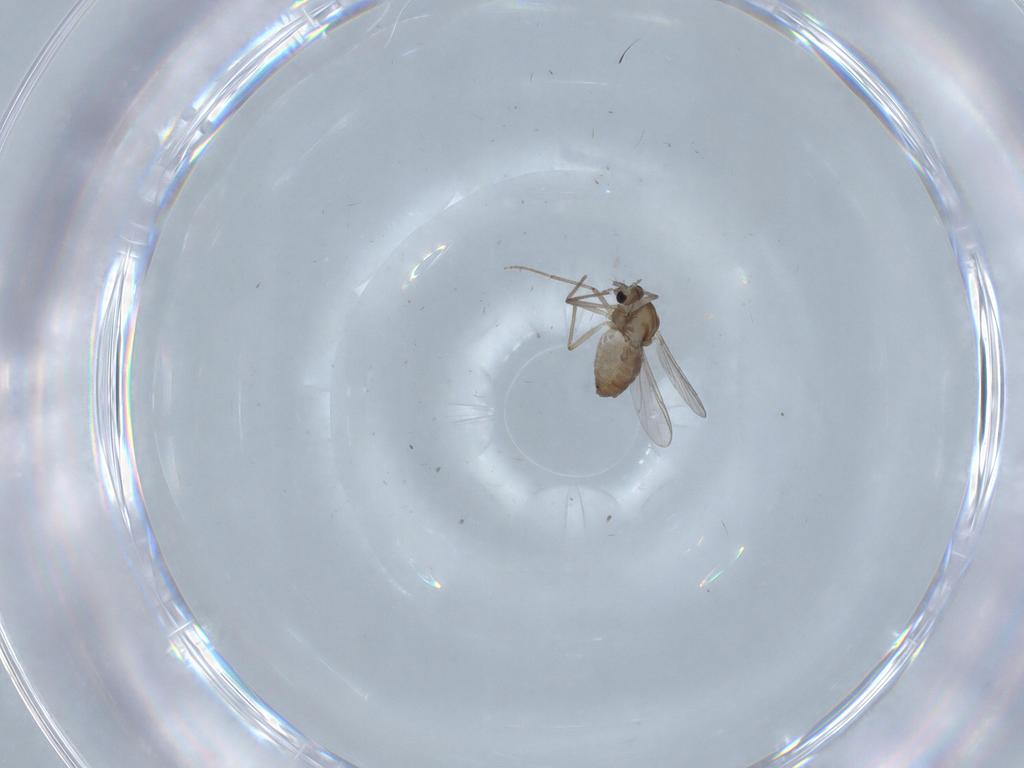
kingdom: Animalia
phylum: Arthropoda
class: Insecta
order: Diptera
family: Chironomidae
